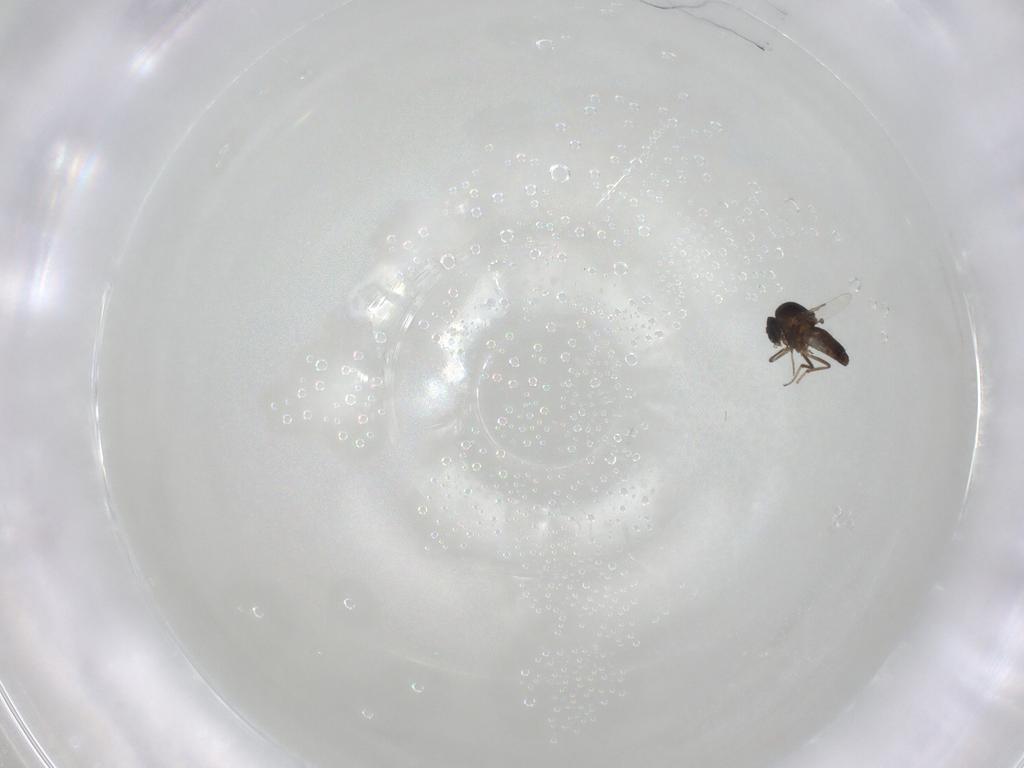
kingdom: Animalia
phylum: Arthropoda
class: Insecta
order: Diptera
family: Ceratopogonidae
